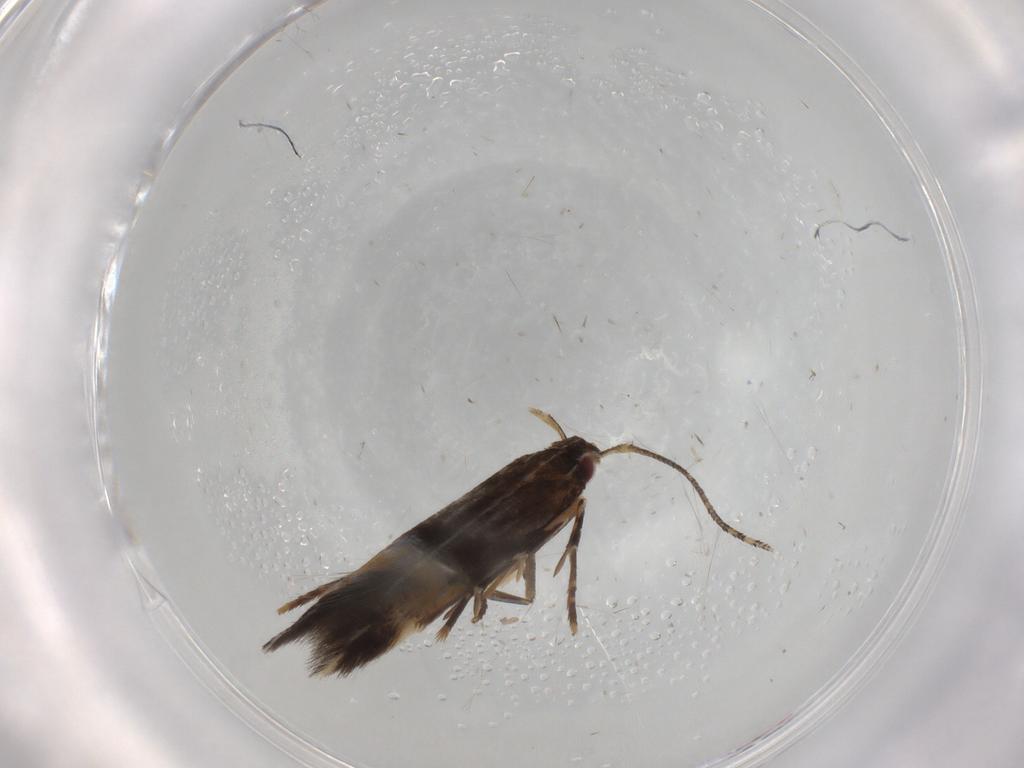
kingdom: Animalia
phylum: Arthropoda
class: Insecta
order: Lepidoptera
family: Cosmopterigidae
